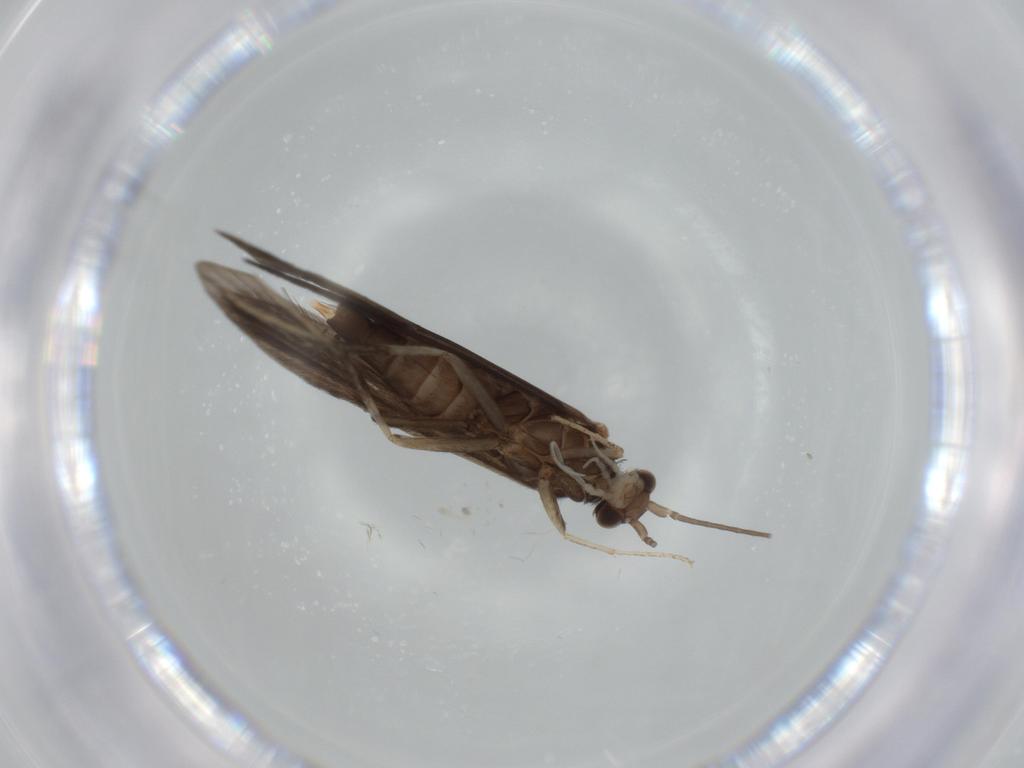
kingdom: Animalia
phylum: Arthropoda
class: Insecta
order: Trichoptera
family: Xiphocentronidae
